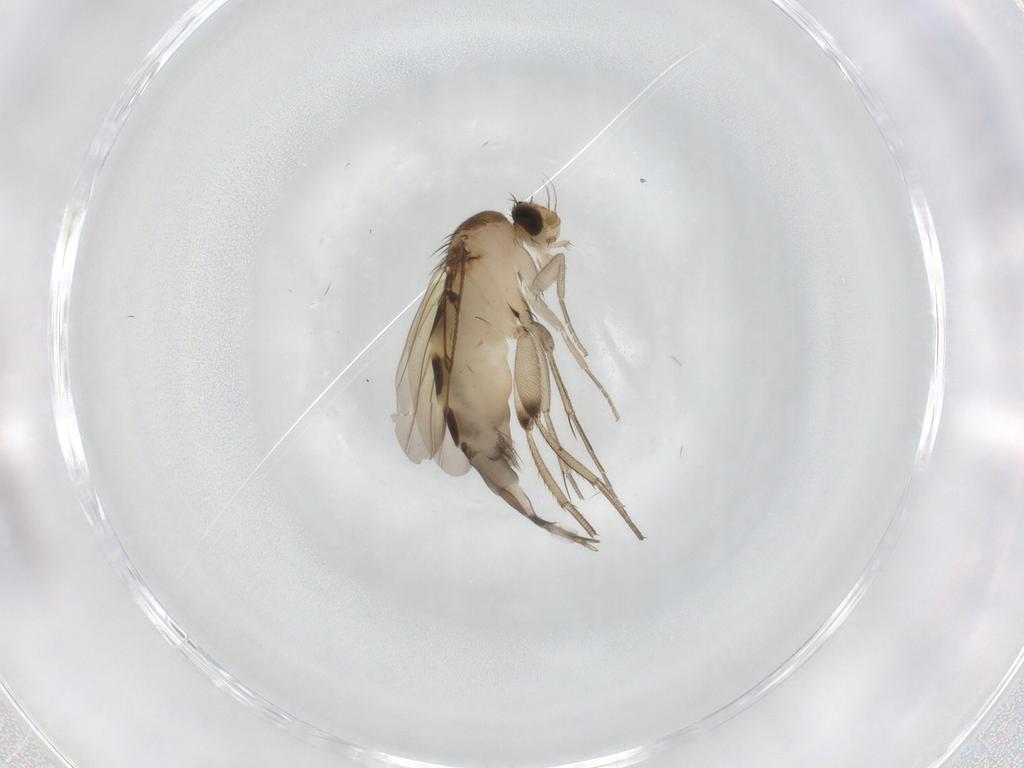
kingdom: Animalia
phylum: Arthropoda
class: Insecta
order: Diptera
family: Phoridae
